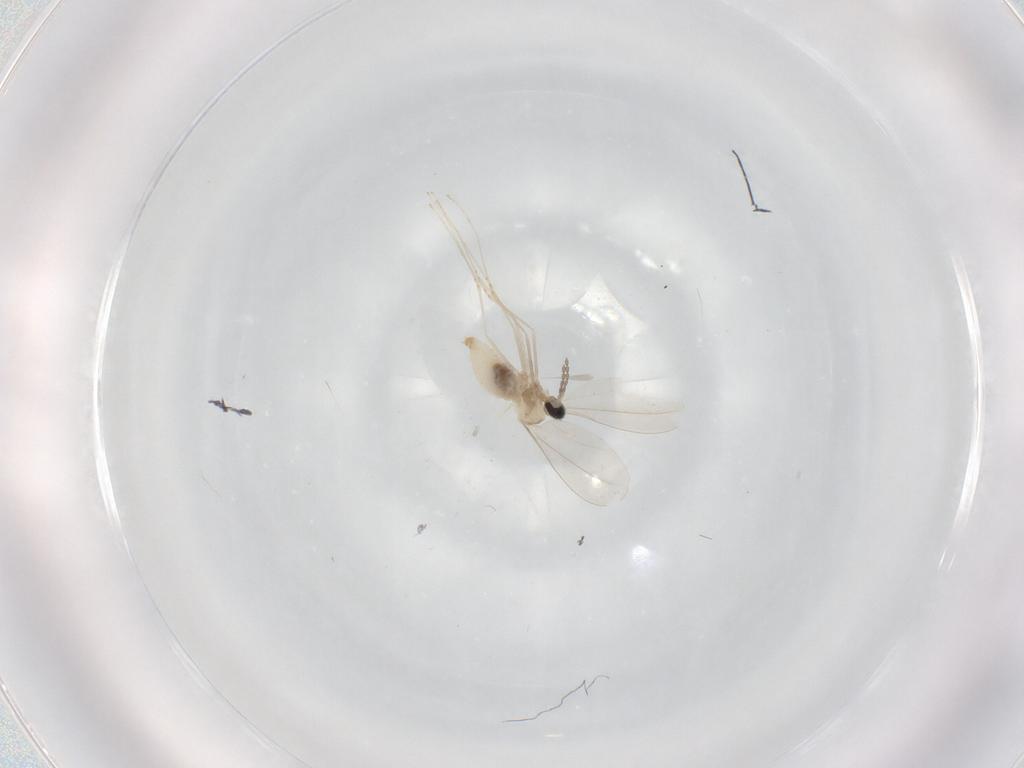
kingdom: Animalia
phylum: Arthropoda
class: Insecta
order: Diptera
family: Cecidomyiidae
